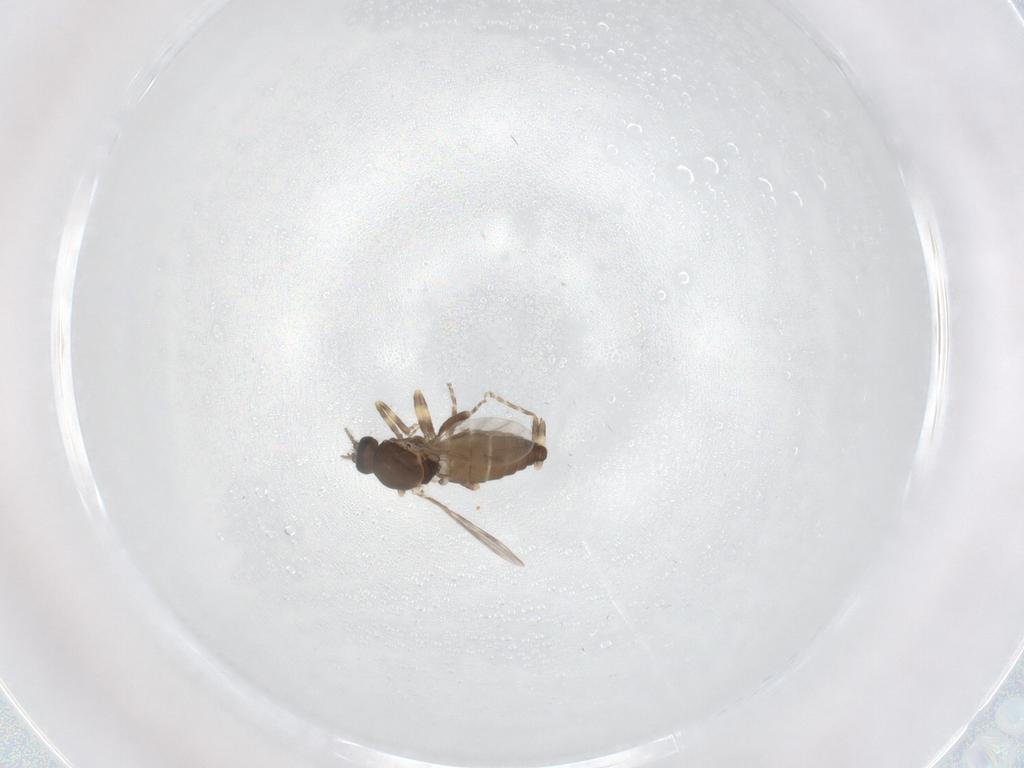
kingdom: Animalia
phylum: Arthropoda
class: Insecta
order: Diptera
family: Ceratopogonidae
